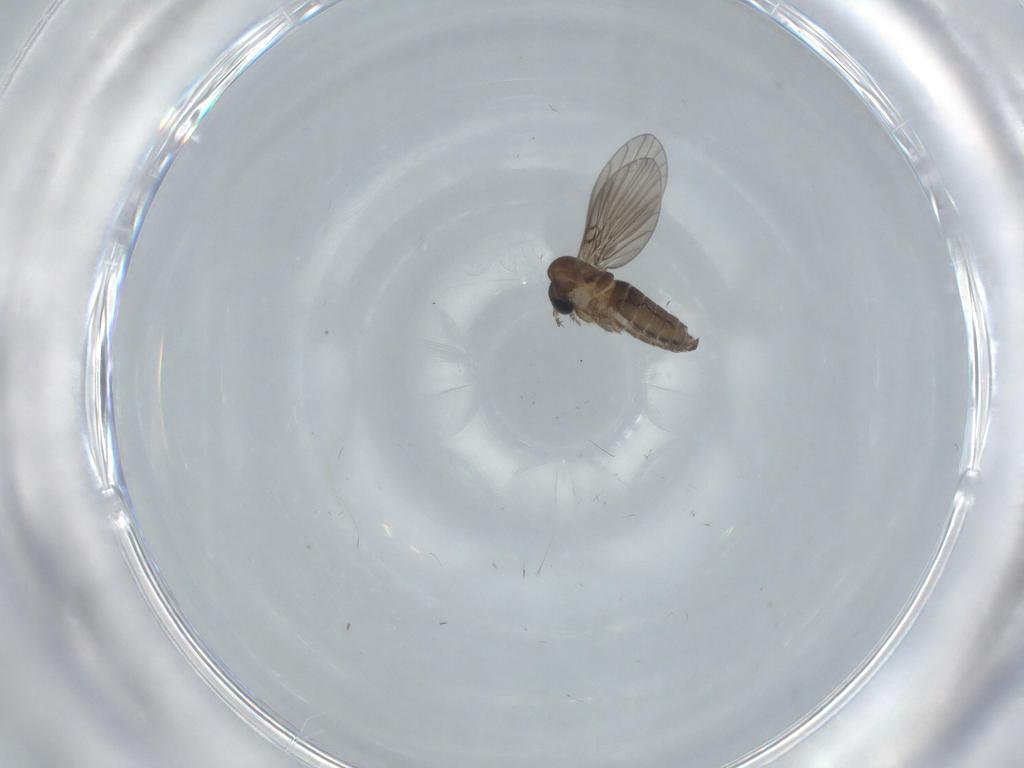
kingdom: Animalia
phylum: Arthropoda
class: Insecta
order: Diptera
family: Psychodidae
